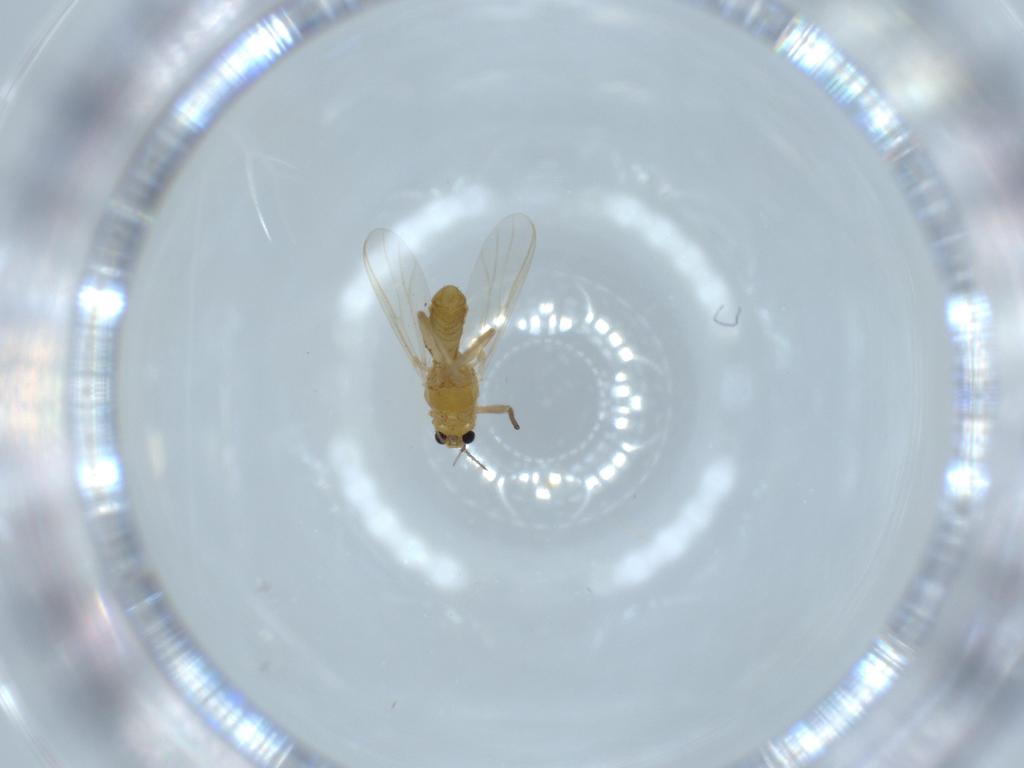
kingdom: Animalia
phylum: Arthropoda
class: Insecta
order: Diptera
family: Chironomidae
